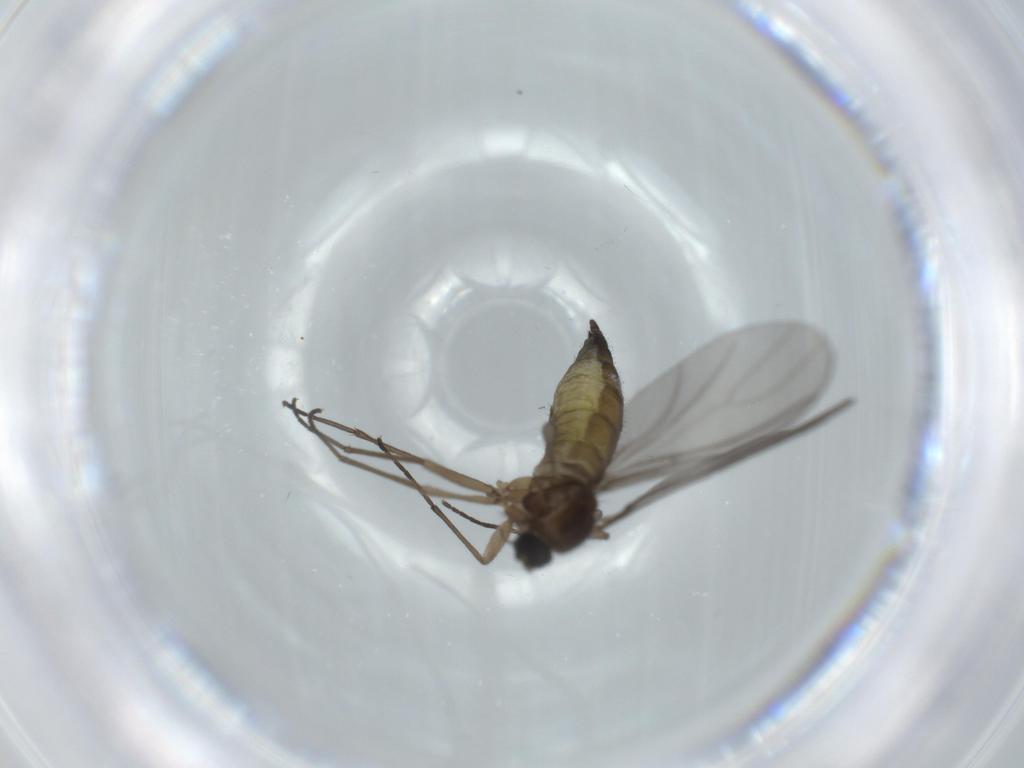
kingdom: Animalia
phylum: Arthropoda
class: Insecta
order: Diptera
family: Sciaridae
